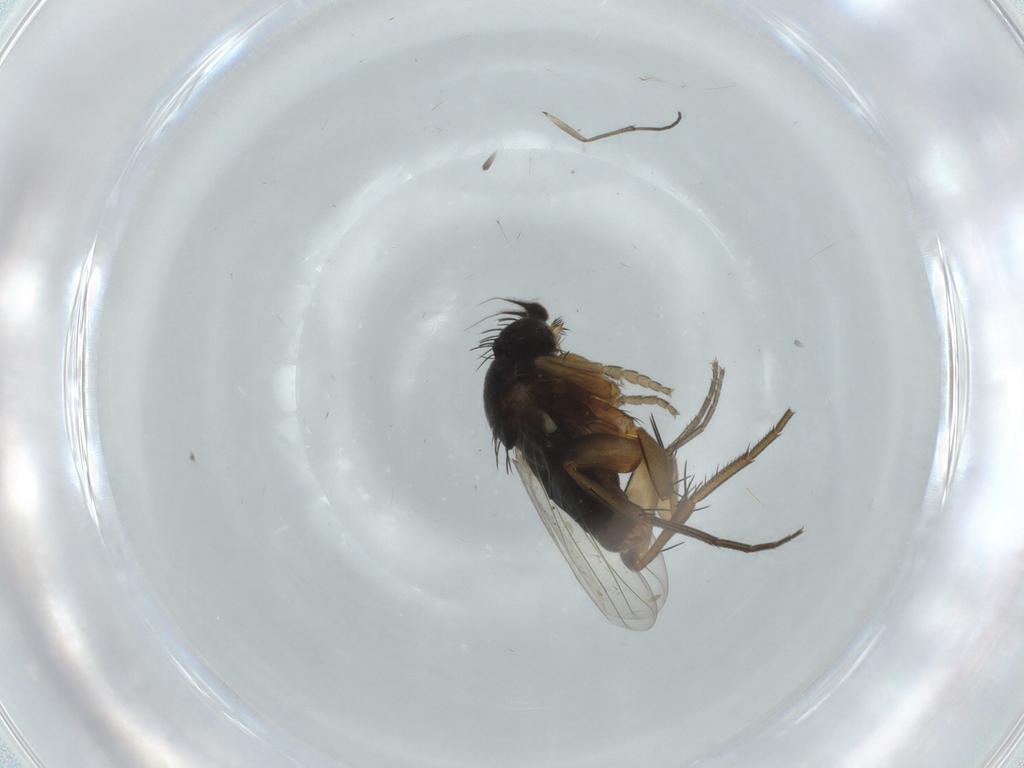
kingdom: Animalia
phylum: Arthropoda
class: Insecta
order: Diptera
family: Phoridae
